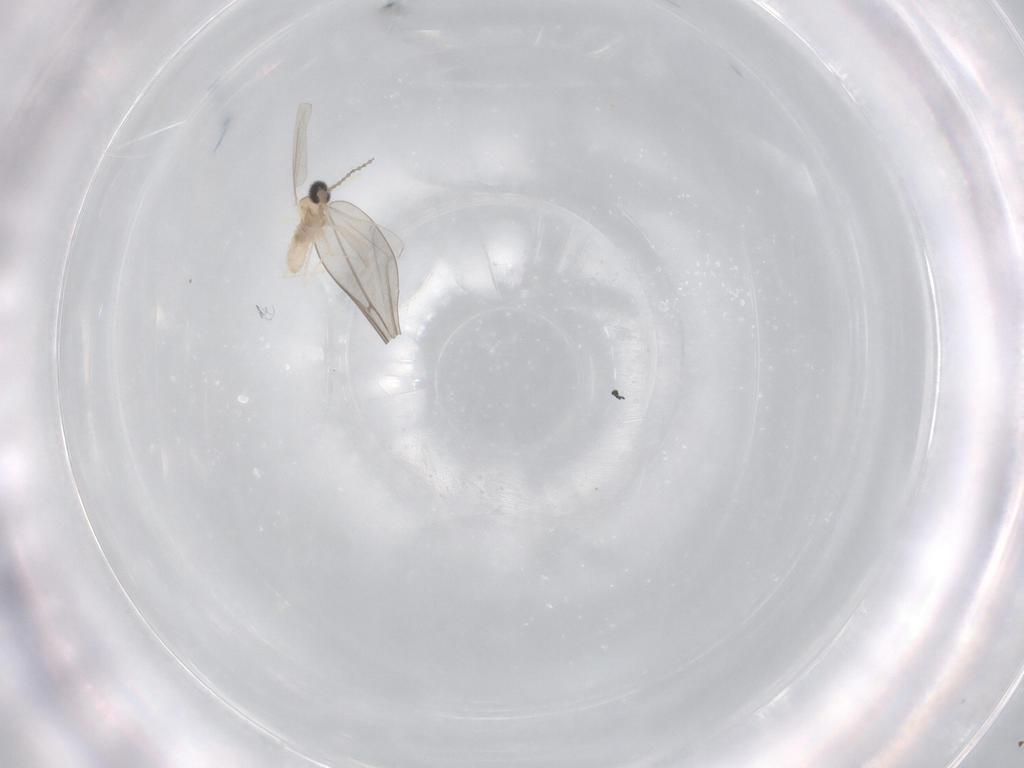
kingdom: Animalia
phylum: Arthropoda
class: Insecta
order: Diptera
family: Cecidomyiidae
